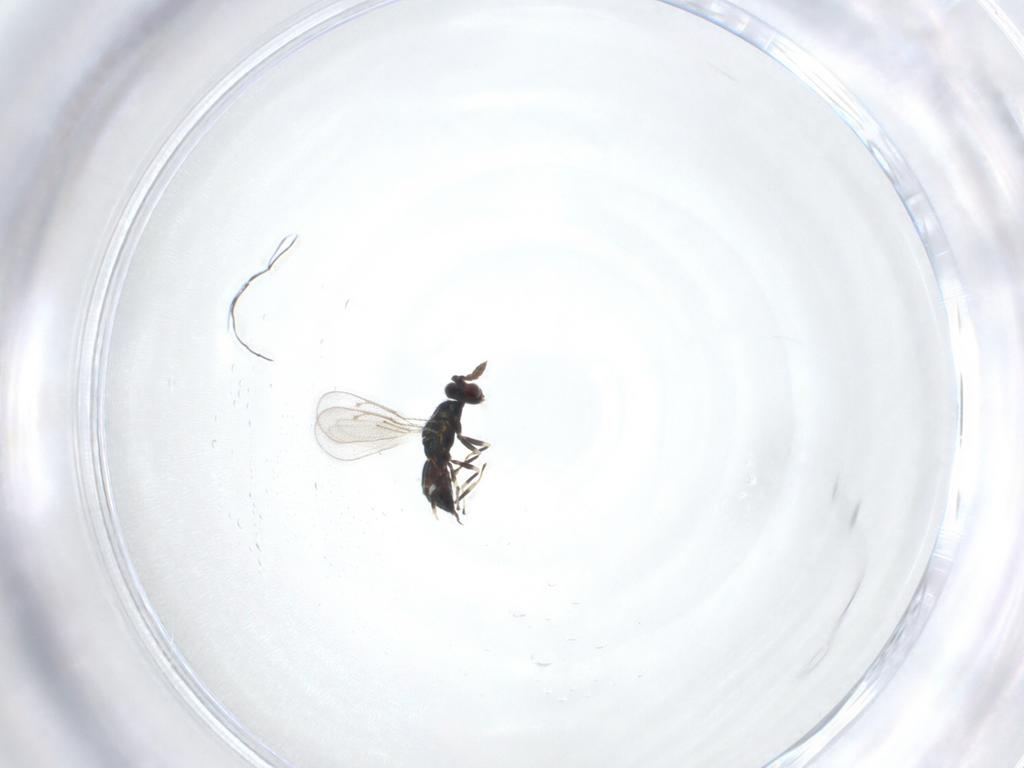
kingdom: Animalia
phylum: Arthropoda
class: Insecta
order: Hymenoptera
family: Eulophidae
